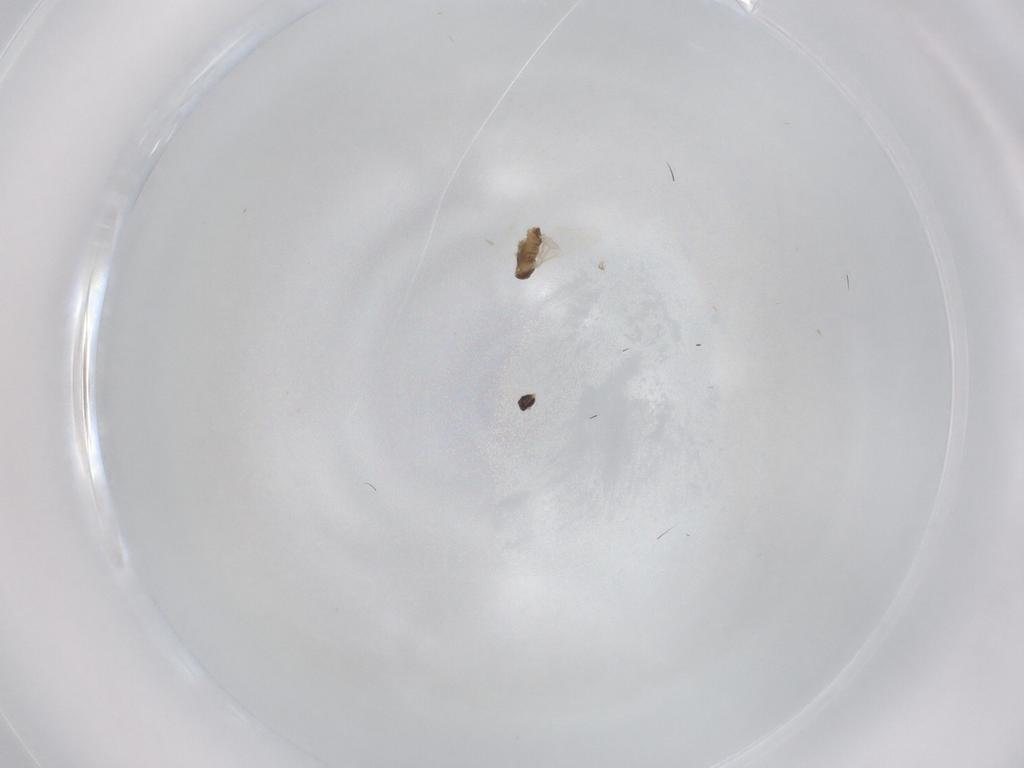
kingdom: Animalia
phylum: Arthropoda
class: Insecta
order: Diptera
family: Cecidomyiidae
